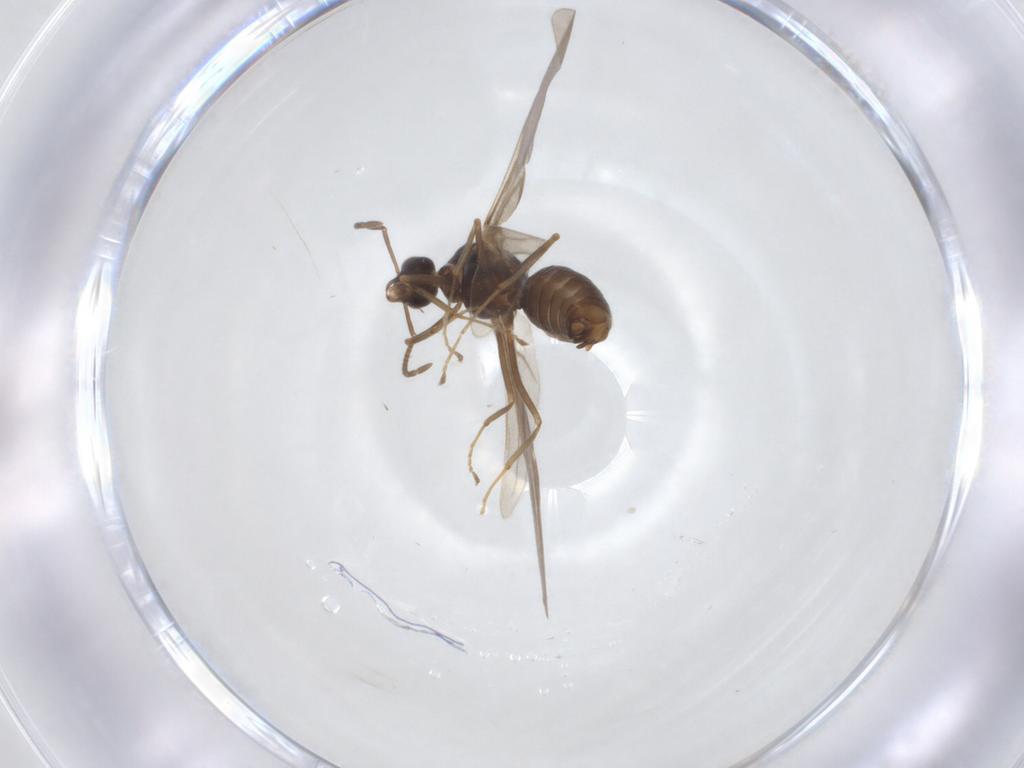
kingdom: Animalia
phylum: Arthropoda
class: Insecta
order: Hymenoptera
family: Formicidae
